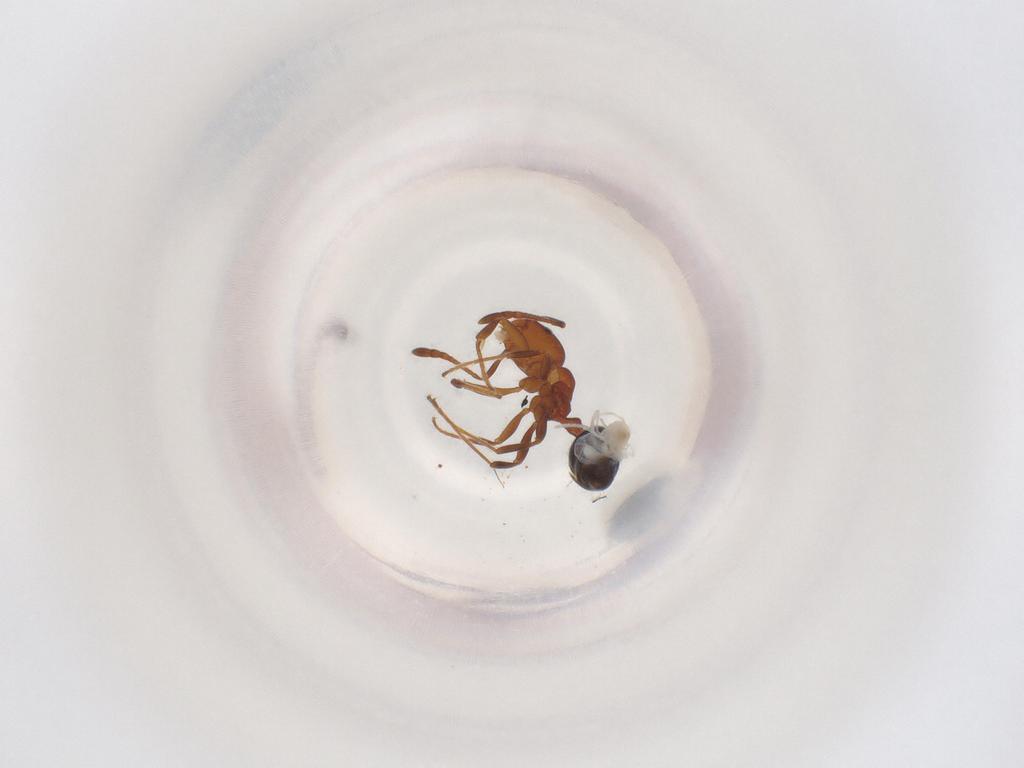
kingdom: Animalia
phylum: Arthropoda
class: Insecta
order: Hymenoptera
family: Formicidae
